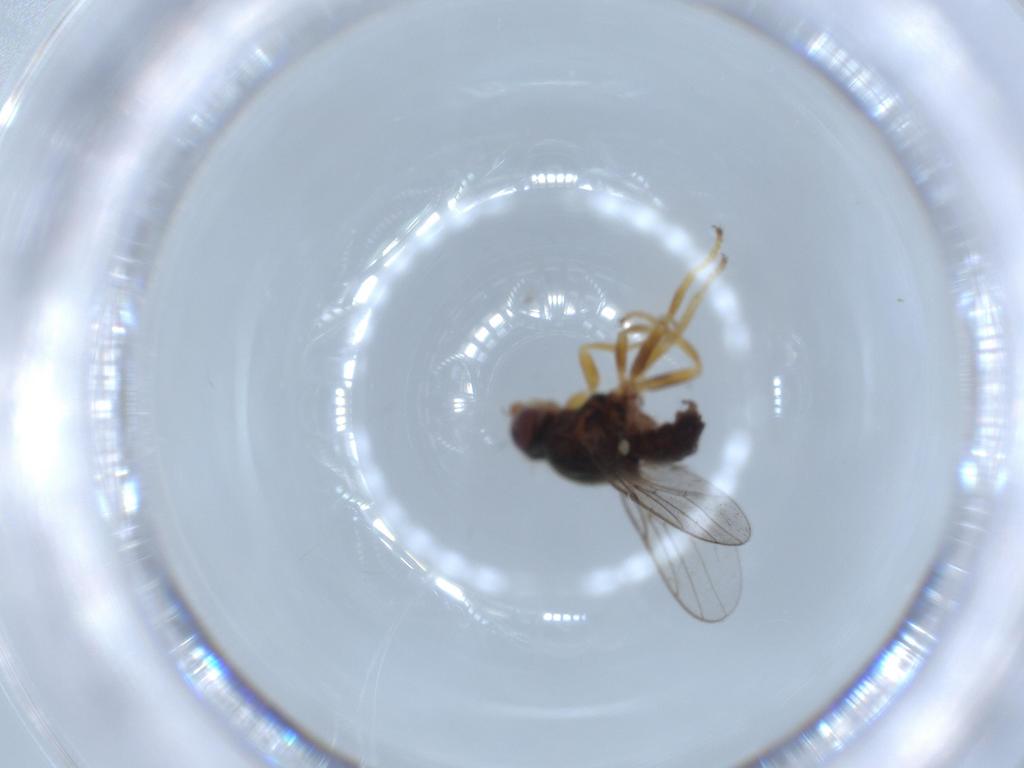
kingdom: Animalia
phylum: Arthropoda
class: Insecta
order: Diptera
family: Chloropidae
